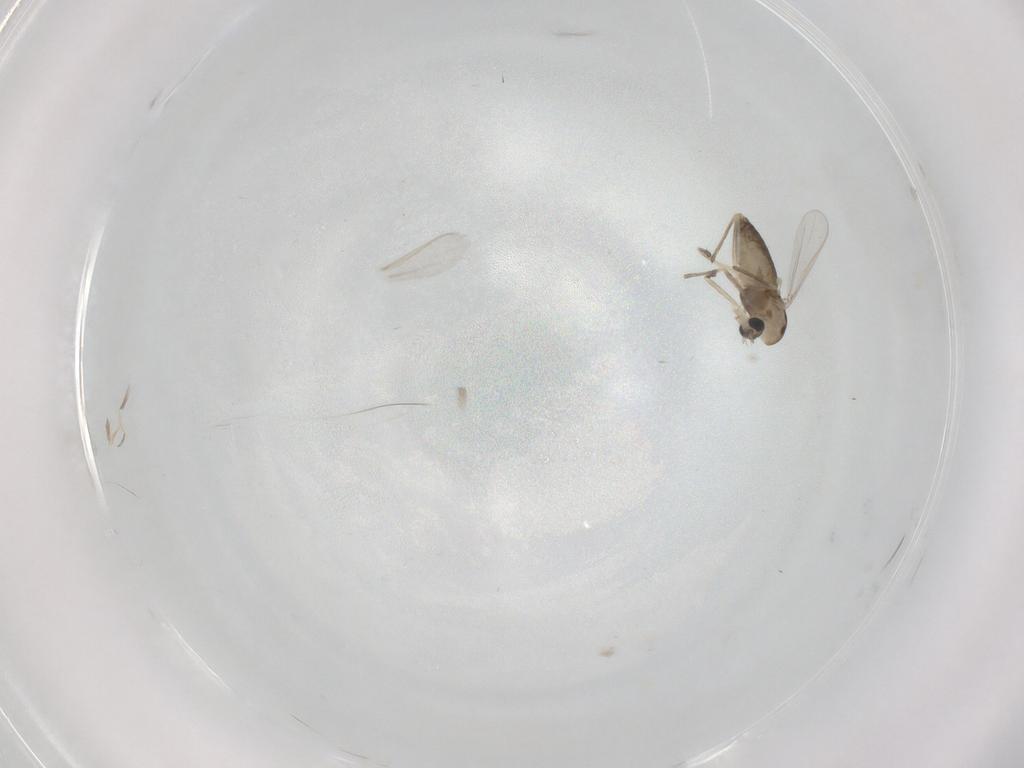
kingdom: Animalia
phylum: Arthropoda
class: Insecta
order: Diptera
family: Chironomidae
